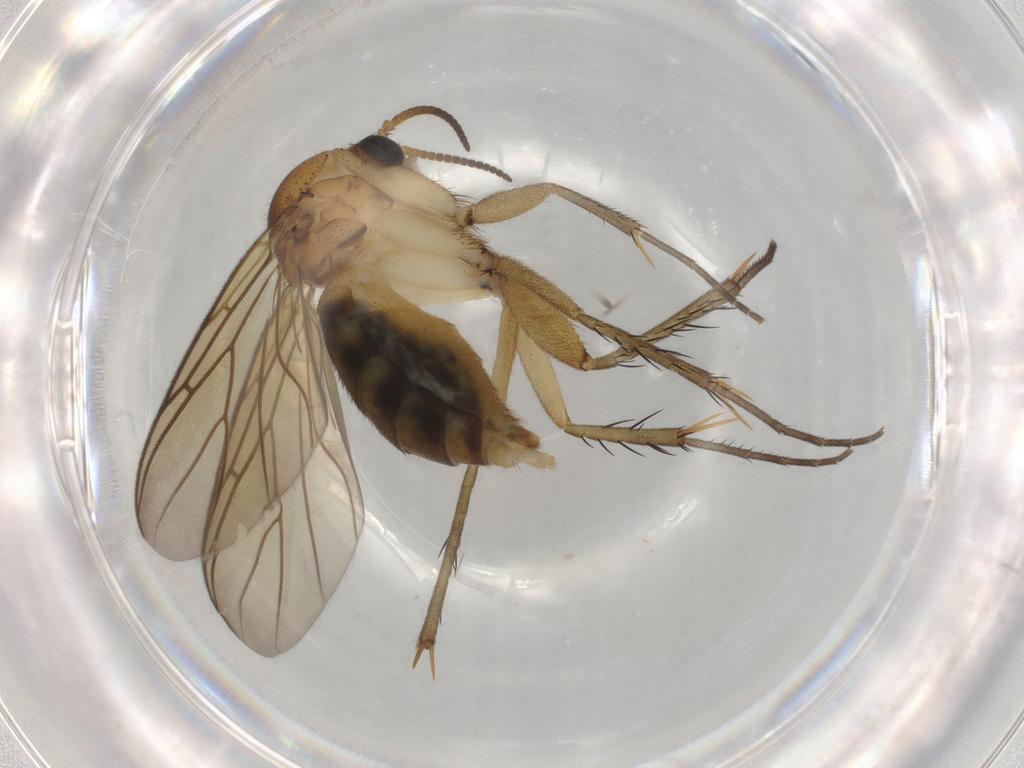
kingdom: Animalia
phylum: Arthropoda
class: Insecta
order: Diptera
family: Mycetophilidae
